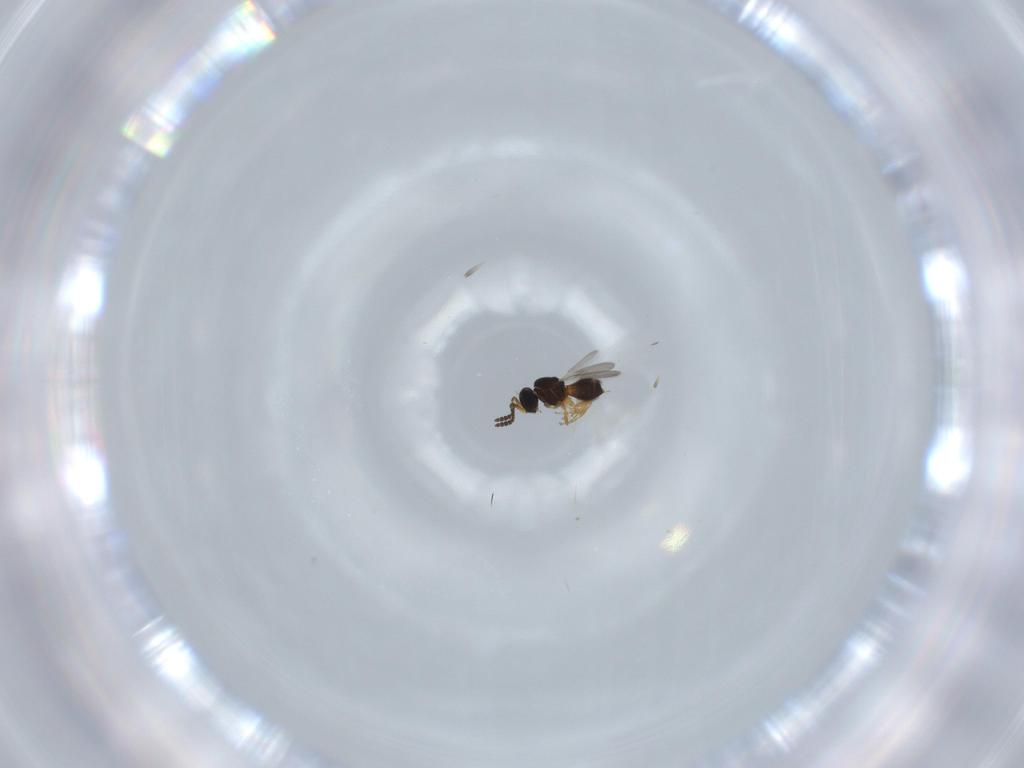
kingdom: Animalia
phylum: Arthropoda
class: Insecta
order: Hymenoptera
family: Scelionidae
